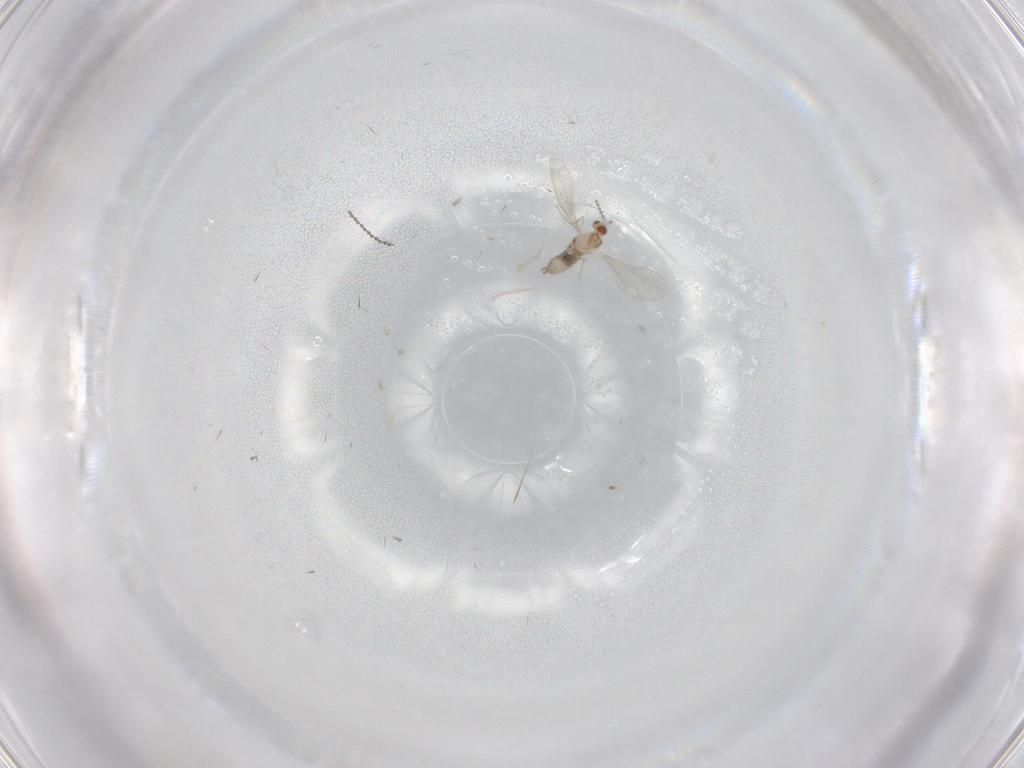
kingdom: Animalia
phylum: Arthropoda
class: Insecta
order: Diptera
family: Cecidomyiidae
